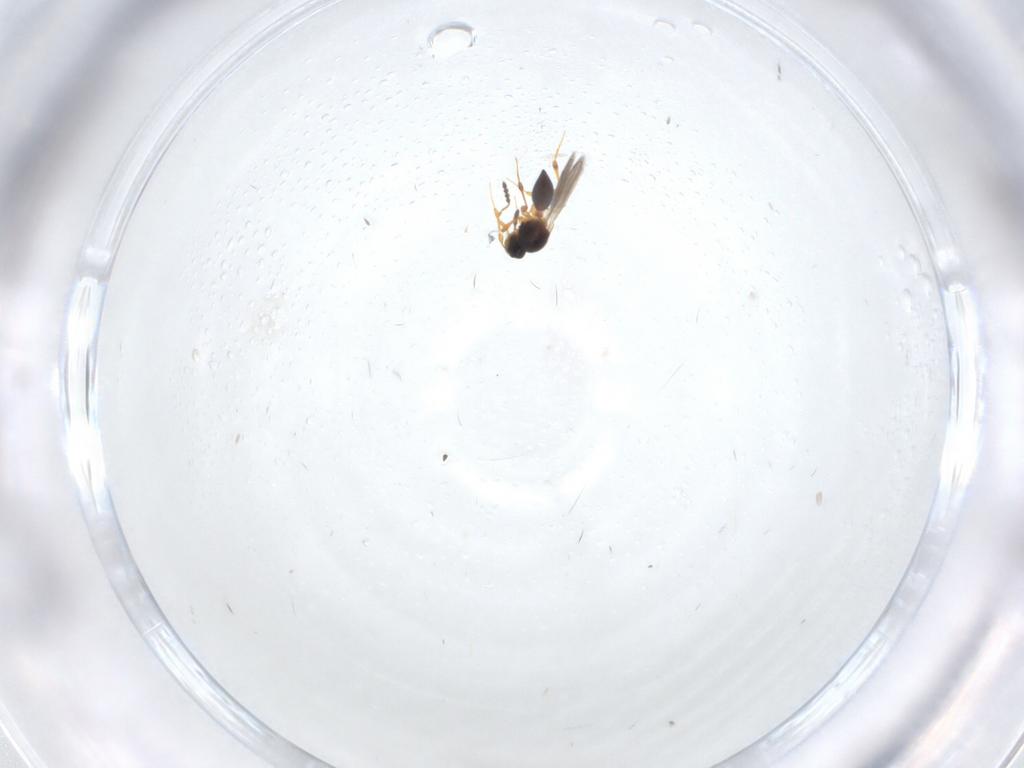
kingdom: Animalia
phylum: Arthropoda
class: Insecta
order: Hymenoptera
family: Platygastridae
